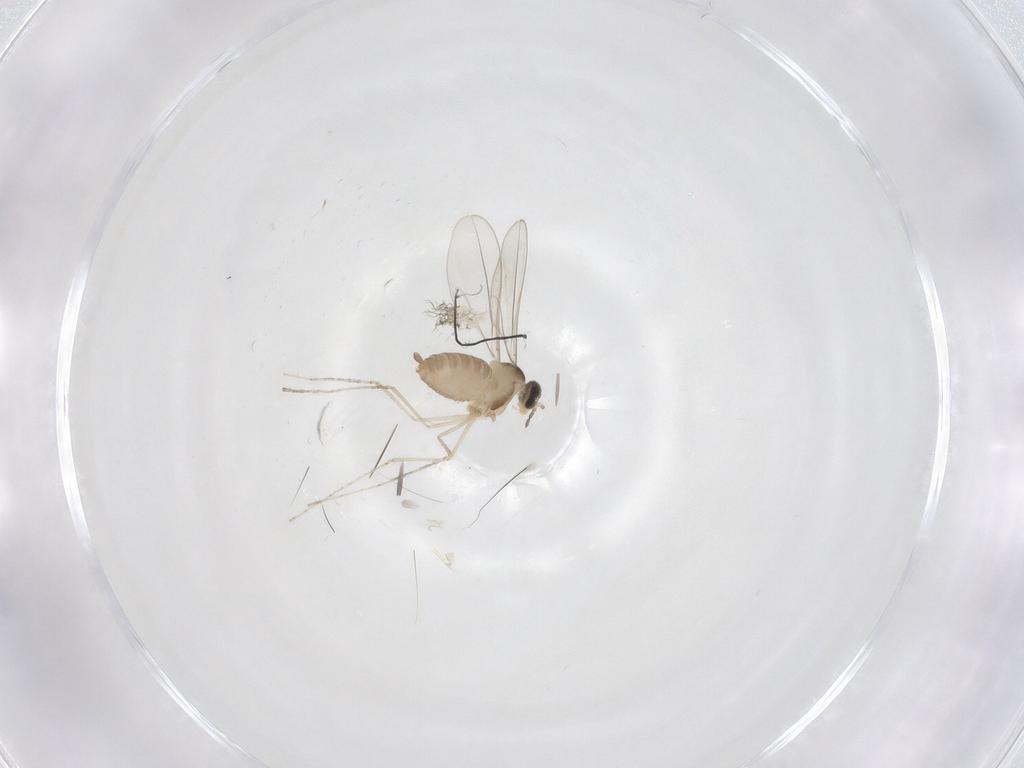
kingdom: Animalia
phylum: Arthropoda
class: Insecta
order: Diptera
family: Cecidomyiidae
